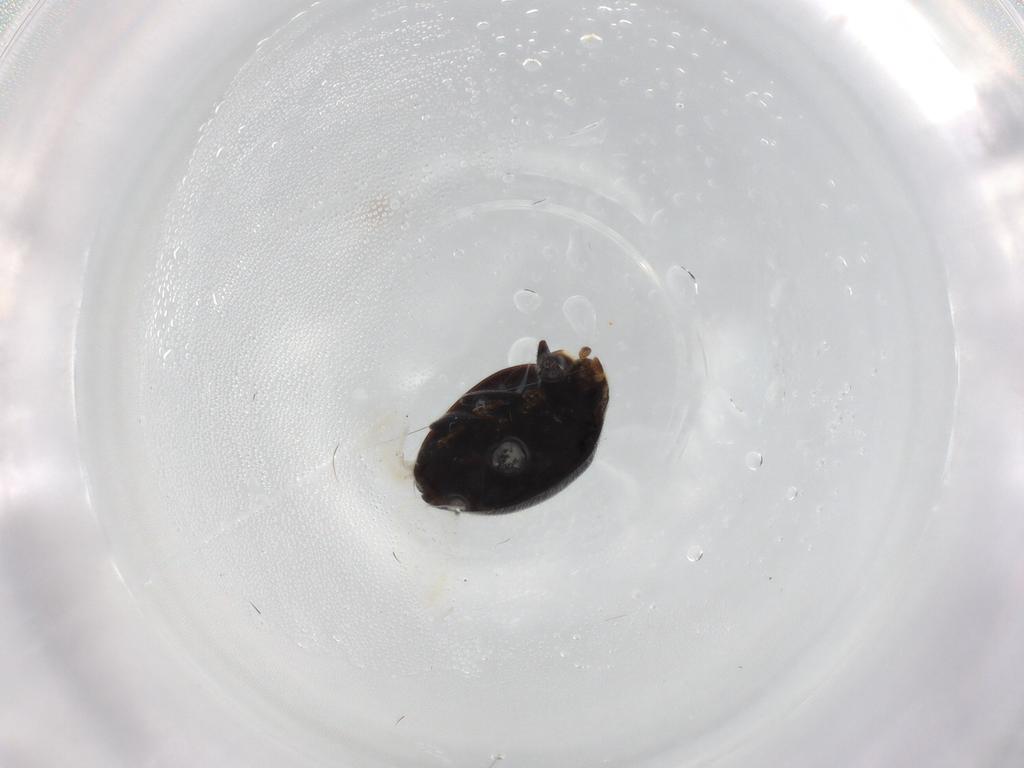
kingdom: Animalia
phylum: Arthropoda
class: Insecta
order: Coleoptera
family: Coccinellidae
